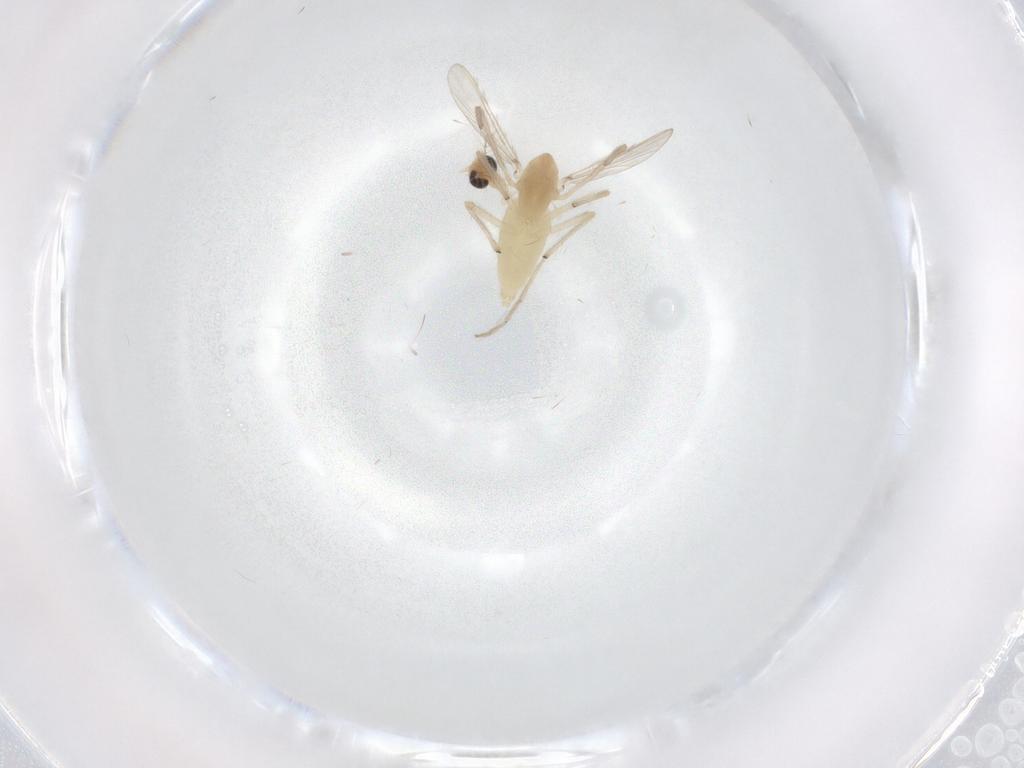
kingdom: Animalia
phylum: Arthropoda
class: Insecta
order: Diptera
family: Chironomidae
